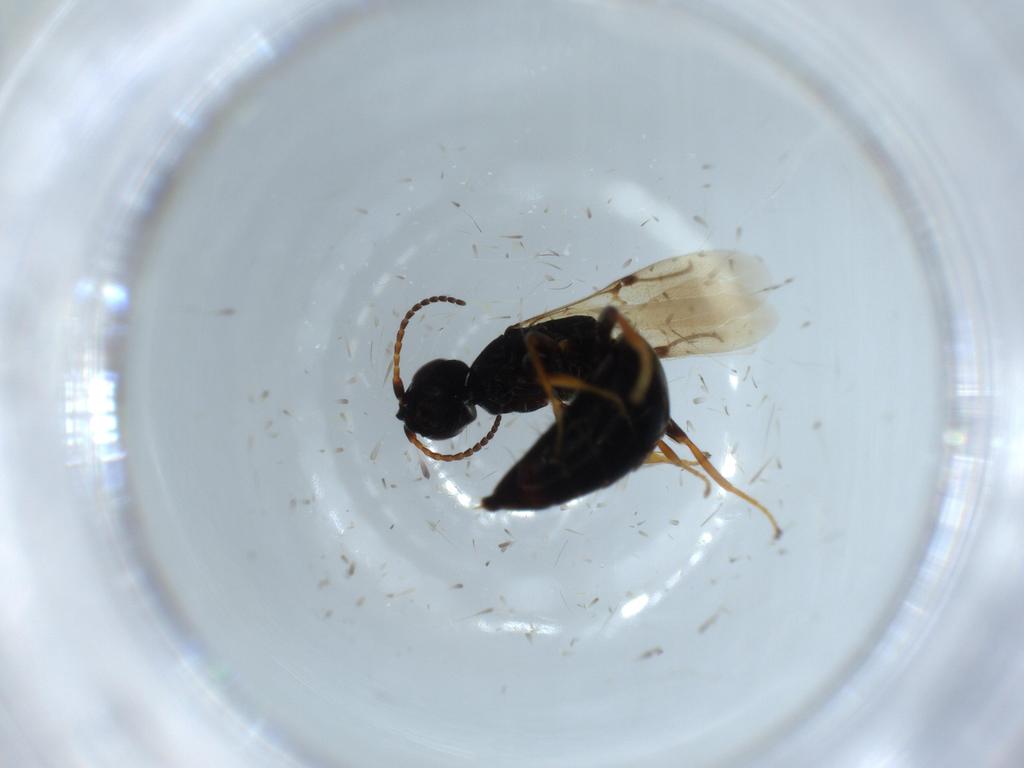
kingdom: Animalia
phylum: Arthropoda
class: Insecta
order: Hymenoptera
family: Bethylidae
